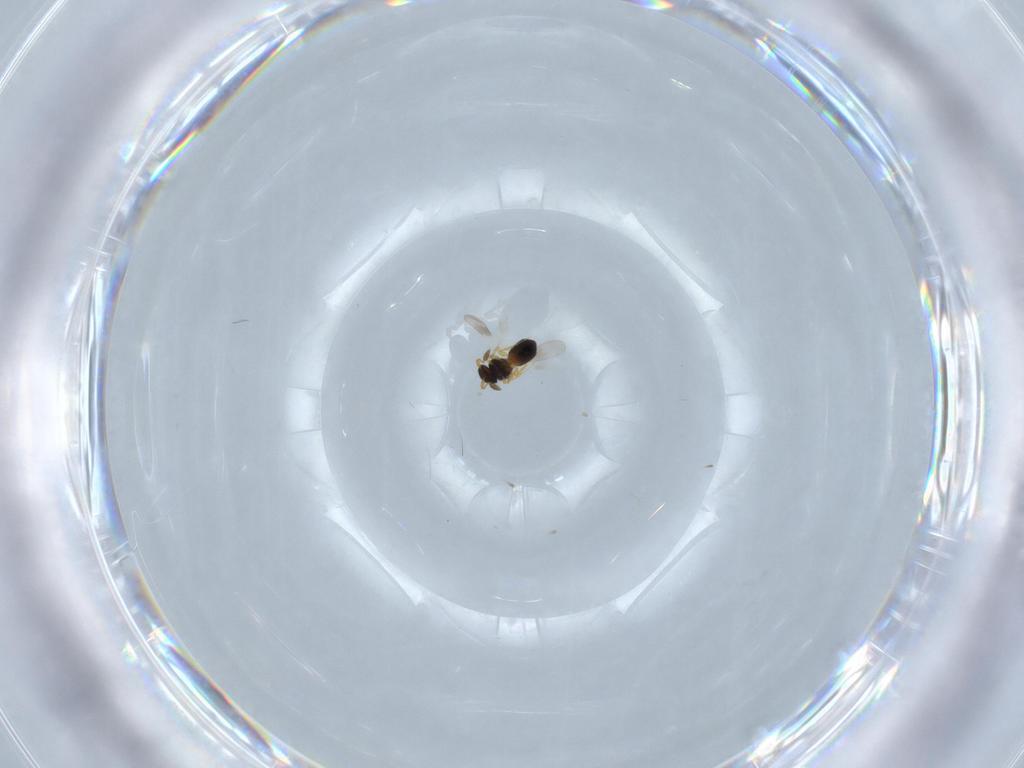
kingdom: Animalia
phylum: Arthropoda
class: Insecta
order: Hymenoptera
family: Platygastridae
